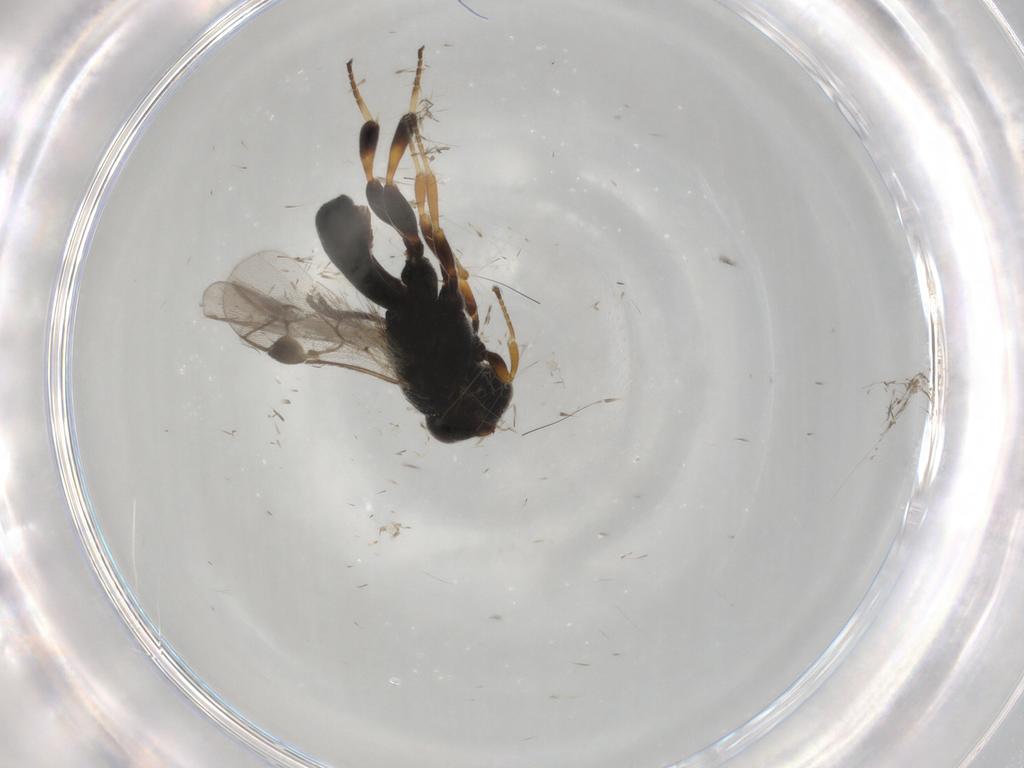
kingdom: Animalia
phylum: Arthropoda
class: Insecta
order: Hymenoptera
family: Braconidae
